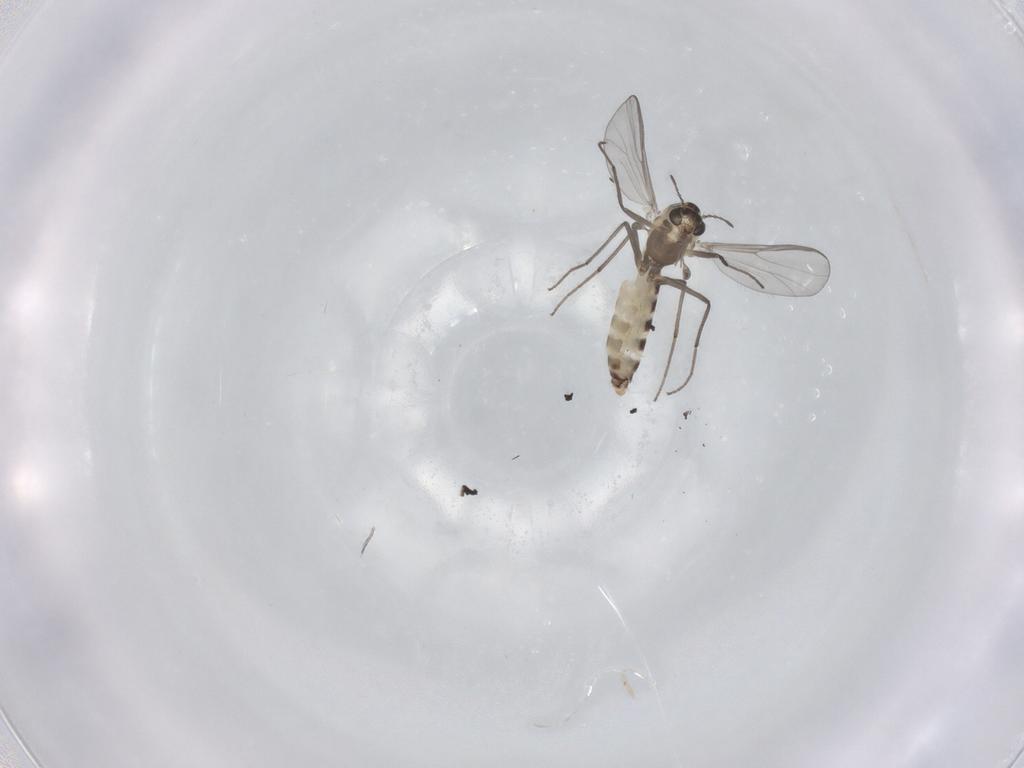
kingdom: Animalia
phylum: Arthropoda
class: Insecta
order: Diptera
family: Chironomidae
